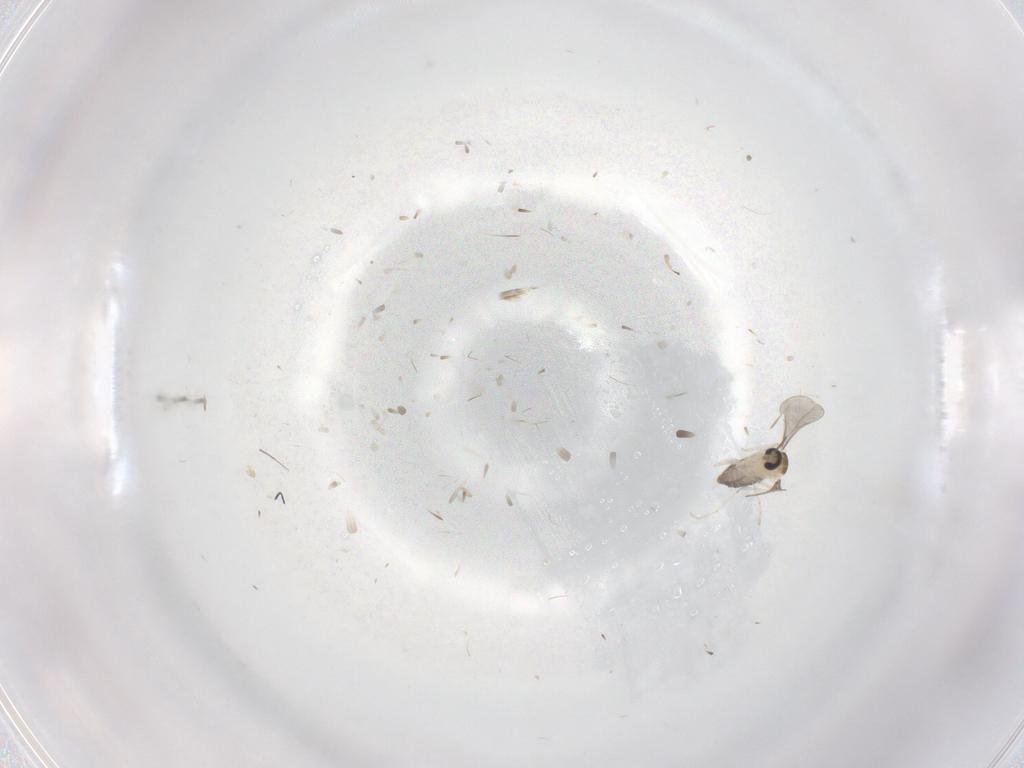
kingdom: Animalia
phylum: Arthropoda
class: Insecta
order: Diptera
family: Cecidomyiidae
